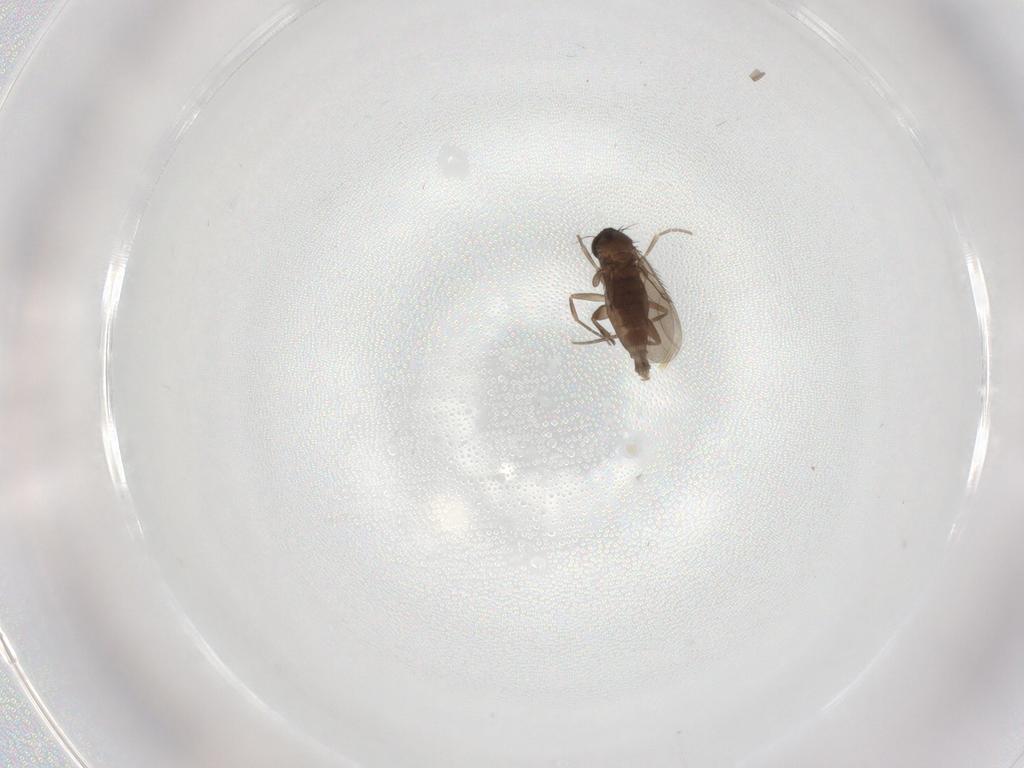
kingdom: Animalia
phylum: Arthropoda
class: Insecta
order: Diptera
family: Phoridae
